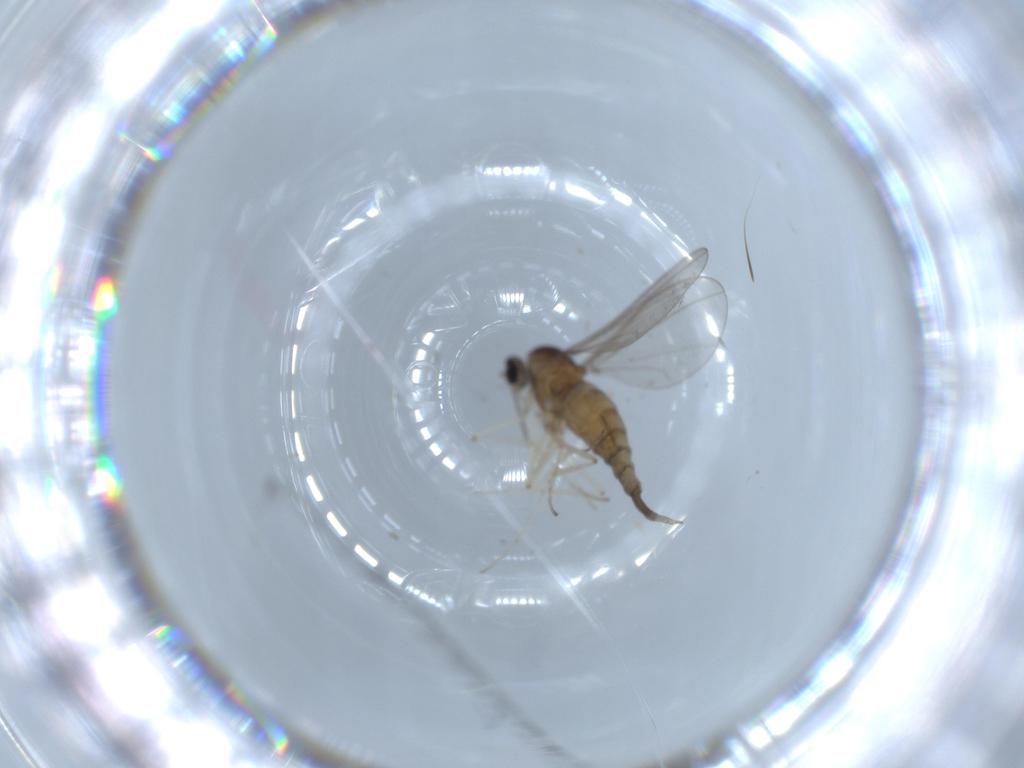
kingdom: Animalia
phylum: Arthropoda
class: Insecta
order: Diptera
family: Cecidomyiidae
